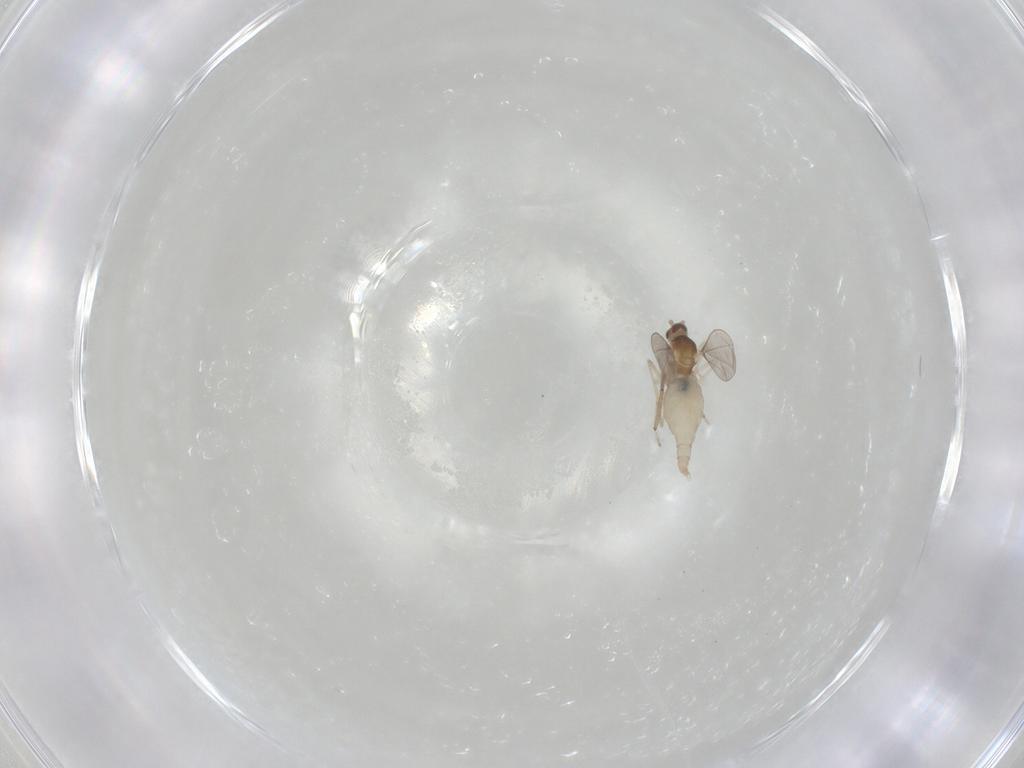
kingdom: Animalia
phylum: Arthropoda
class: Insecta
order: Diptera
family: Cecidomyiidae
